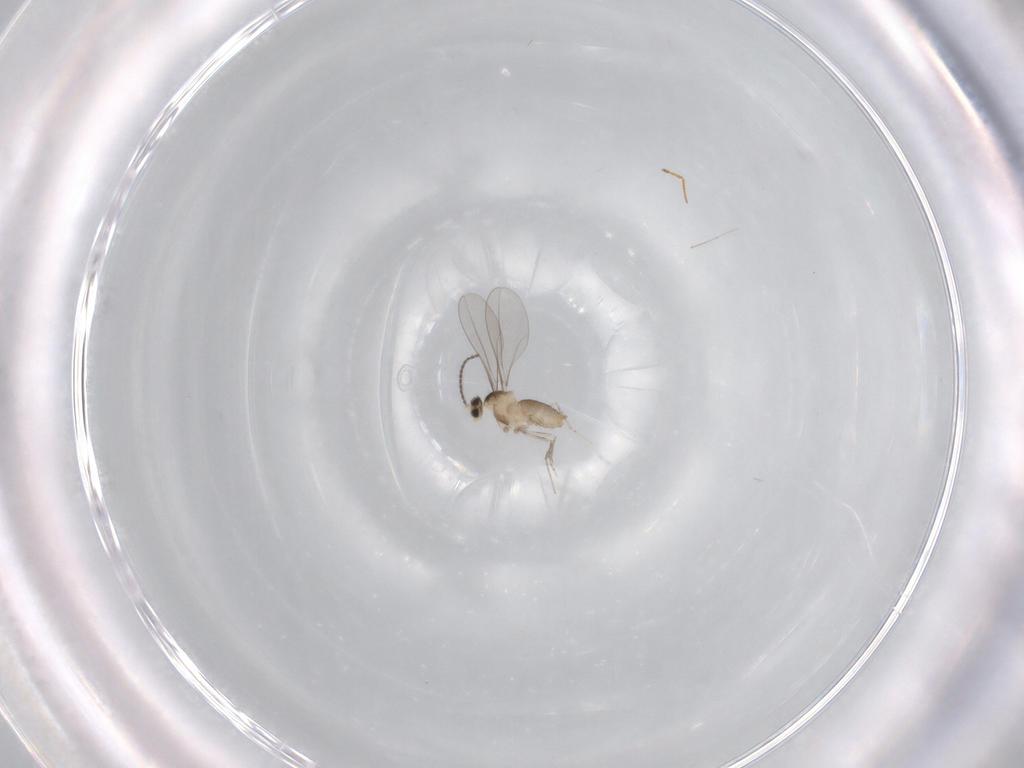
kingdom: Animalia
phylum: Arthropoda
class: Insecta
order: Diptera
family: Cecidomyiidae
